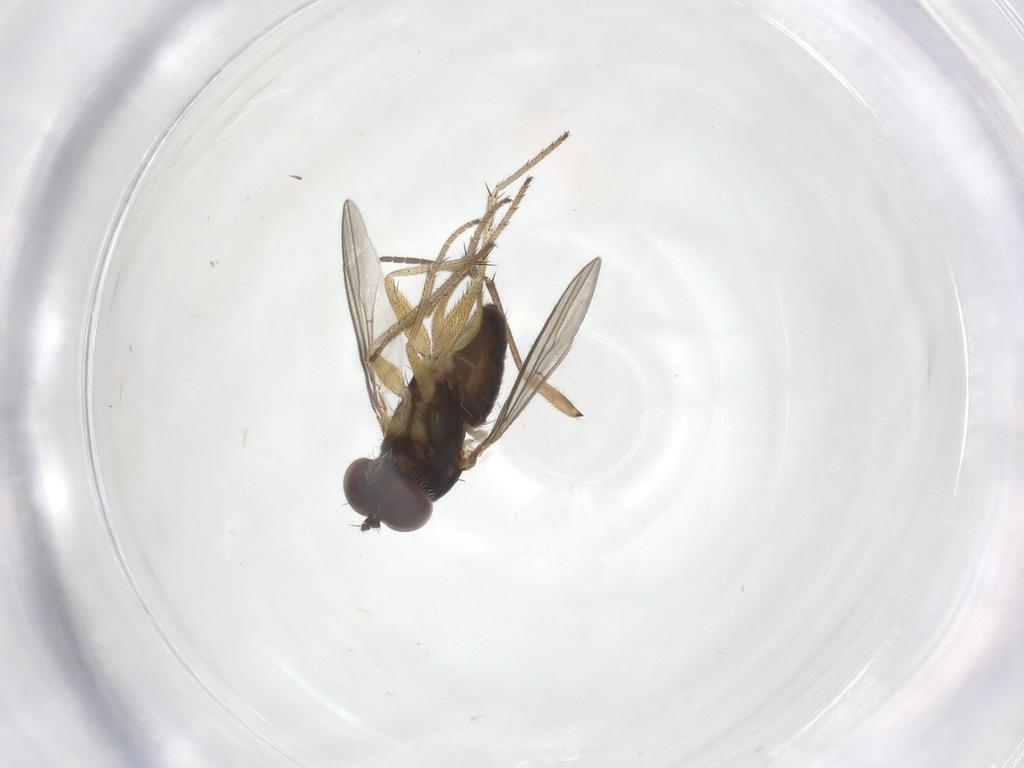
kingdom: Animalia
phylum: Arthropoda
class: Insecta
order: Diptera
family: Dolichopodidae
